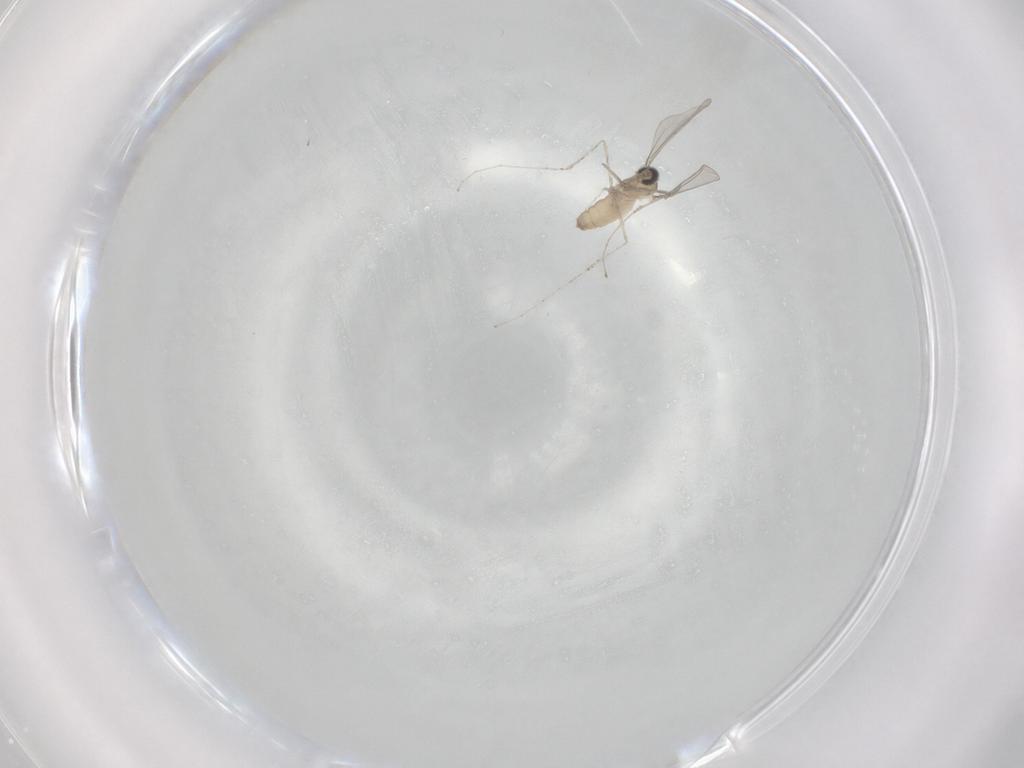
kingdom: Animalia
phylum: Arthropoda
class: Insecta
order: Diptera
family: Cecidomyiidae
